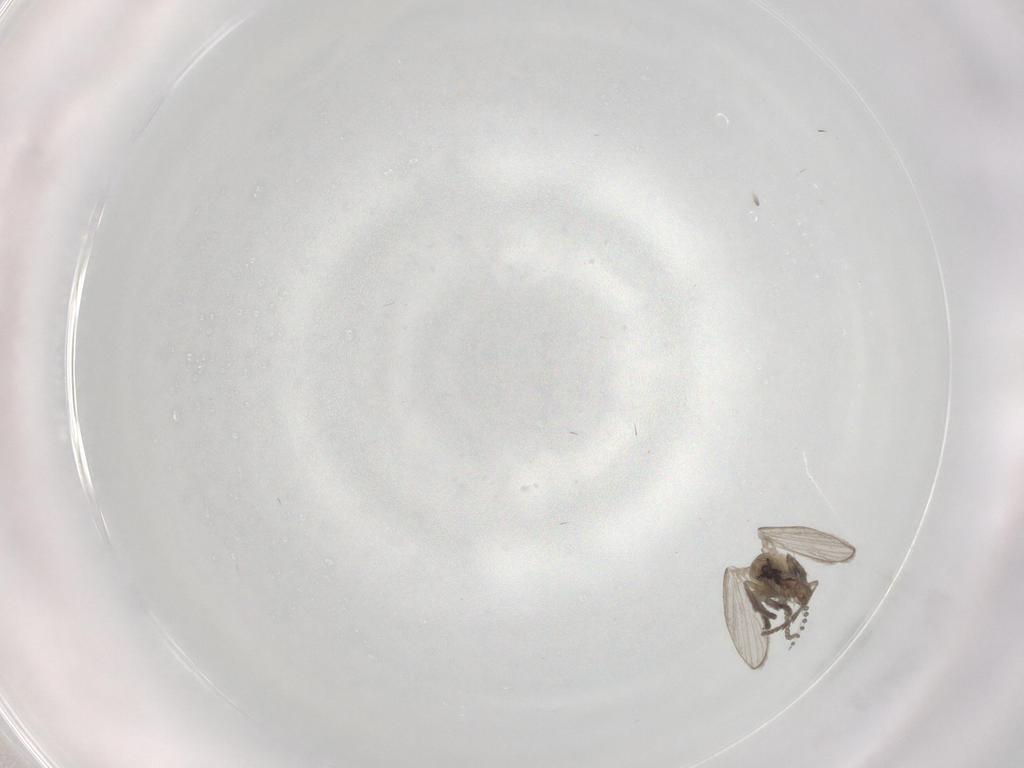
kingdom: Animalia
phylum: Arthropoda
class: Insecta
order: Diptera
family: Psychodidae
